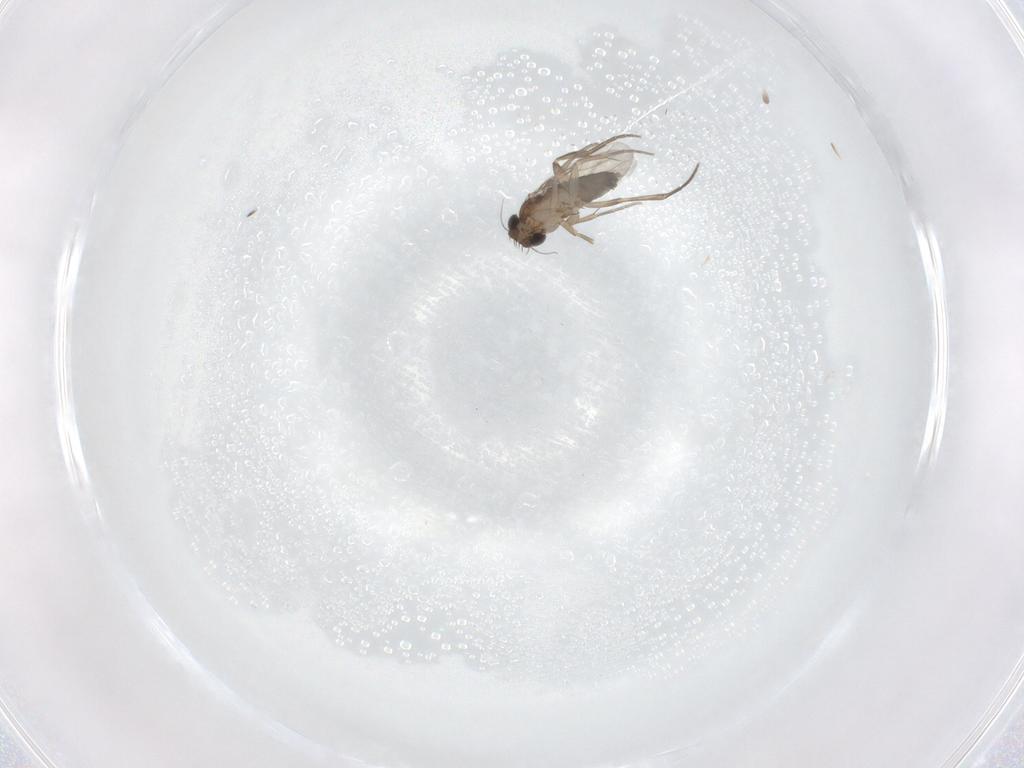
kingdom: Animalia
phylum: Arthropoda
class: Insecta
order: Diptera
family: Phoridae
